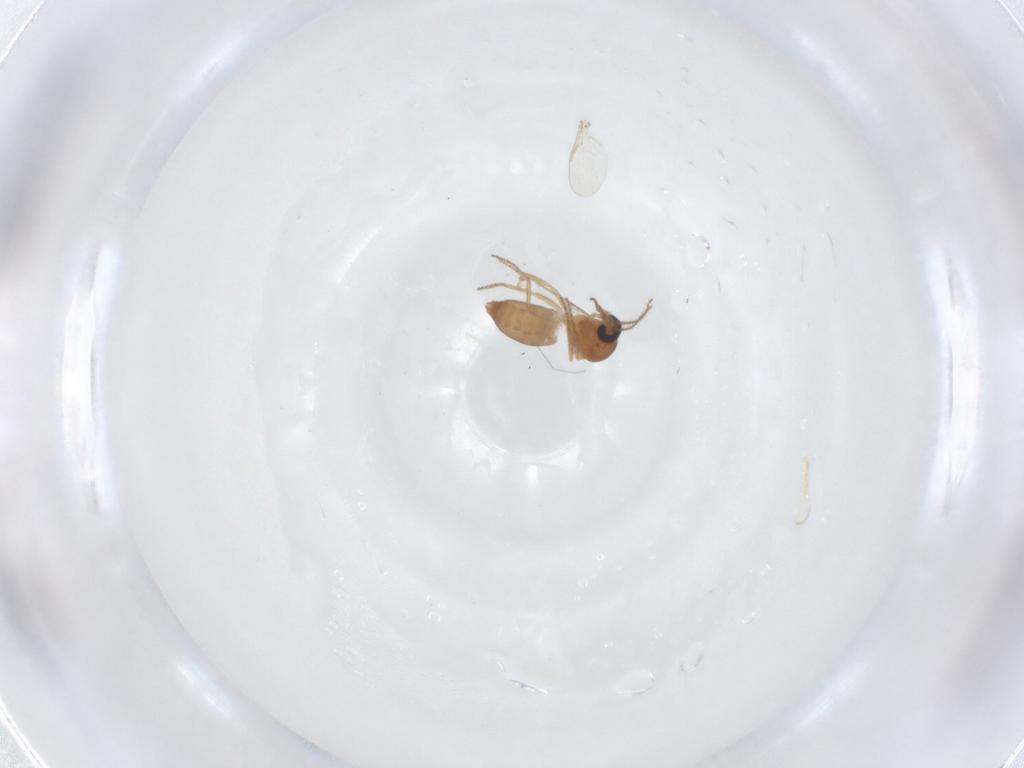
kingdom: Animalia
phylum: Arthropoda
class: Insecta
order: Diptera
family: Ceratopogonidae
